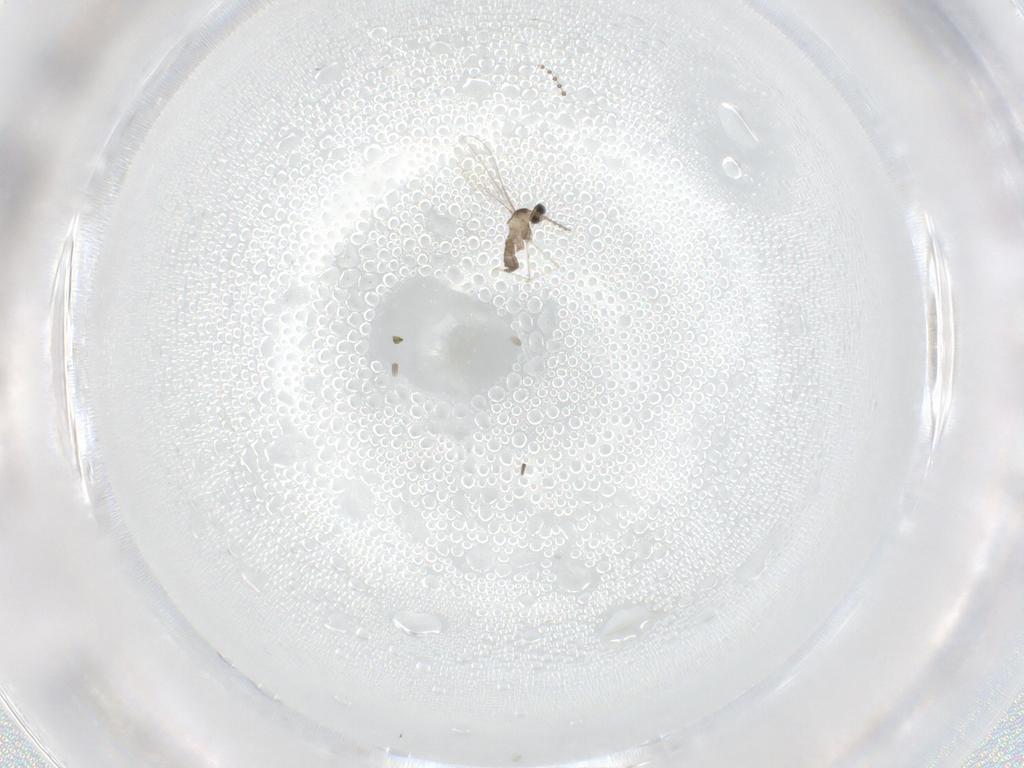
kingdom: Animalia
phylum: Arthropoda
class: Insecta
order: Diptera
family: Cecidomyiidae
